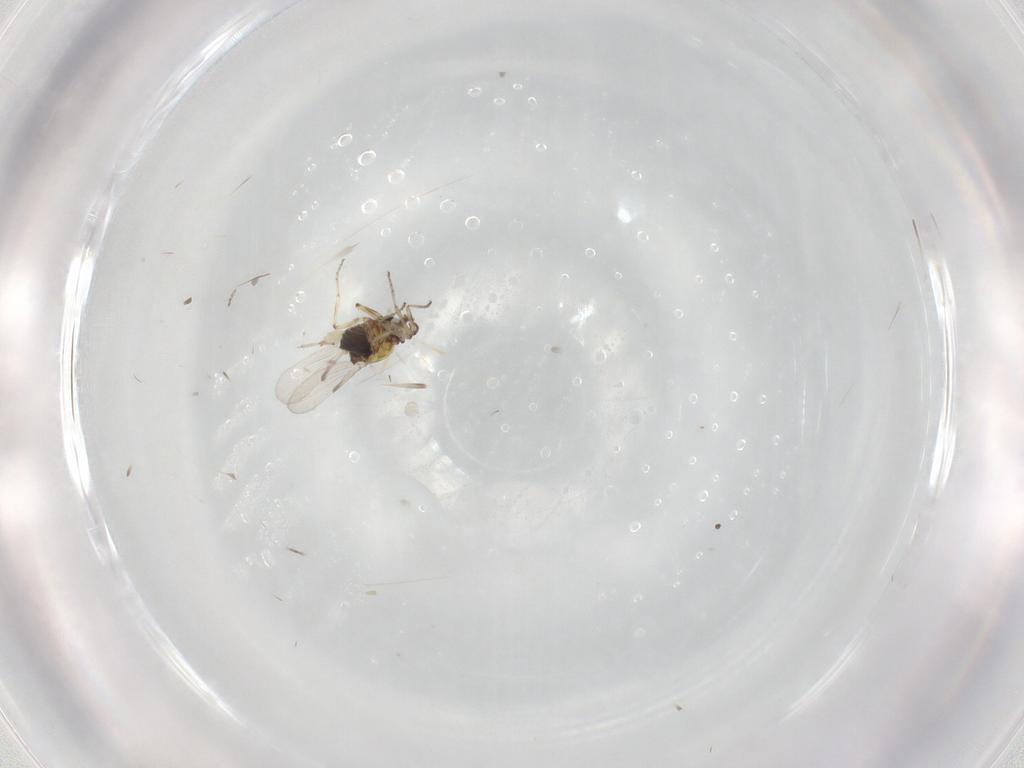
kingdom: Animalia
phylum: Arthropoda
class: Insecta
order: Diptera
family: Ceratopogonidae
